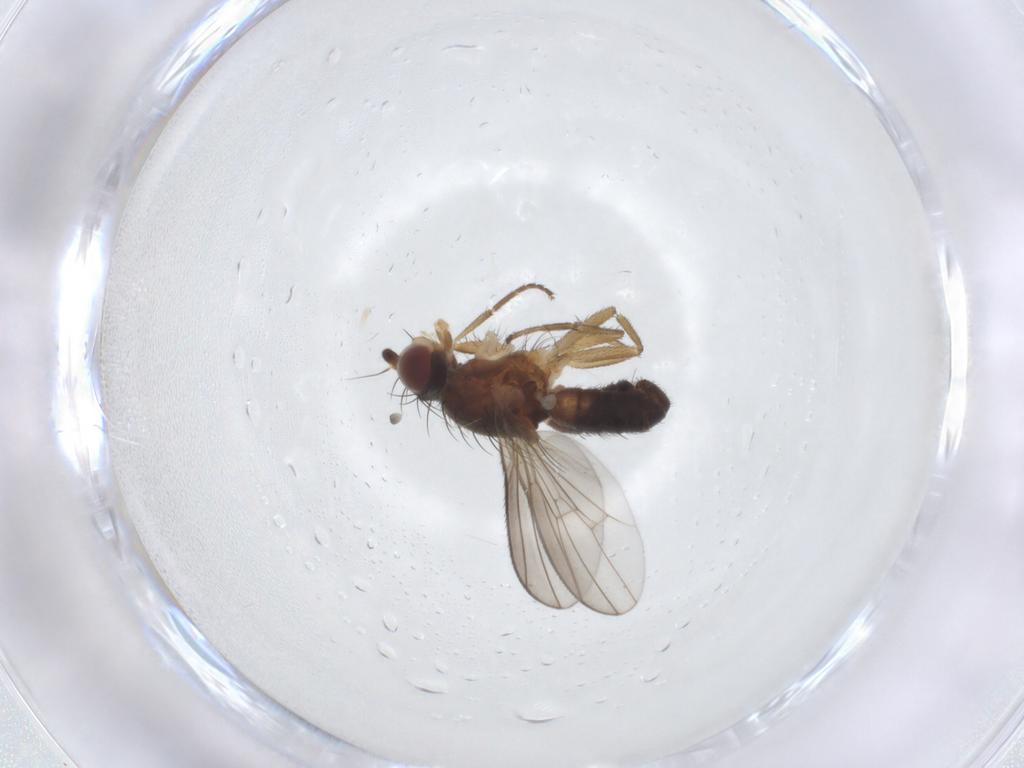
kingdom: Animalia
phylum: Arthropoda
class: Insecta
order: Diptera
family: Heleomyzidae
